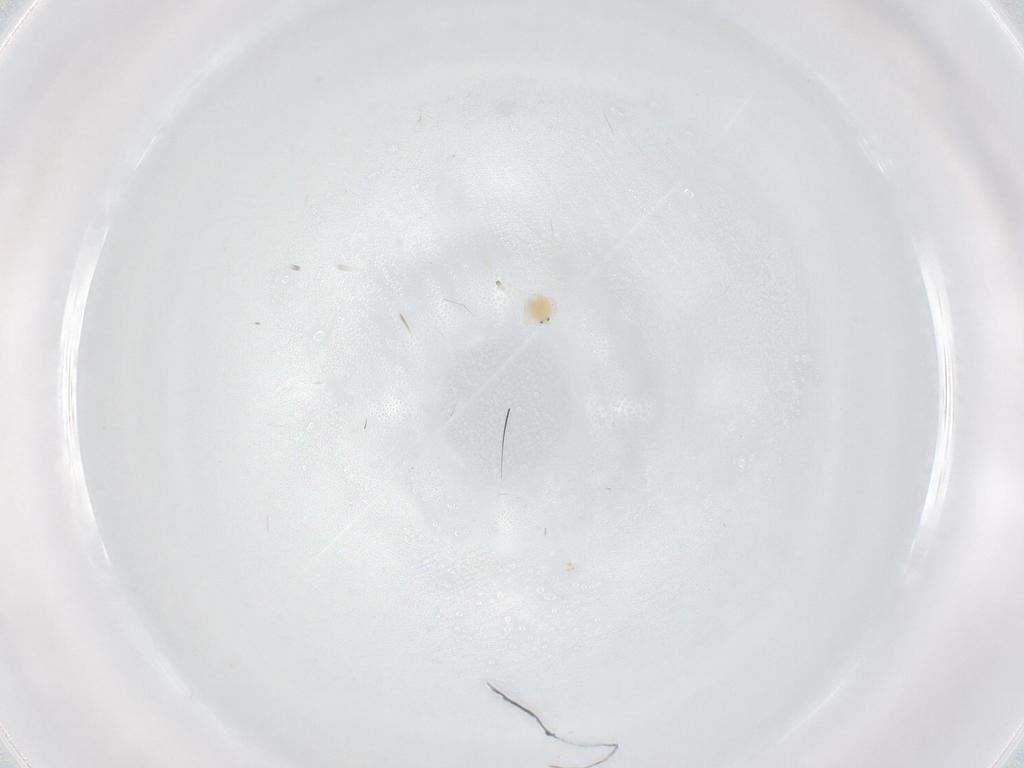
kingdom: Animalia
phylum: Arthropoda
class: Arachnida
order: Trombidiformes
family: Unionicolidae
